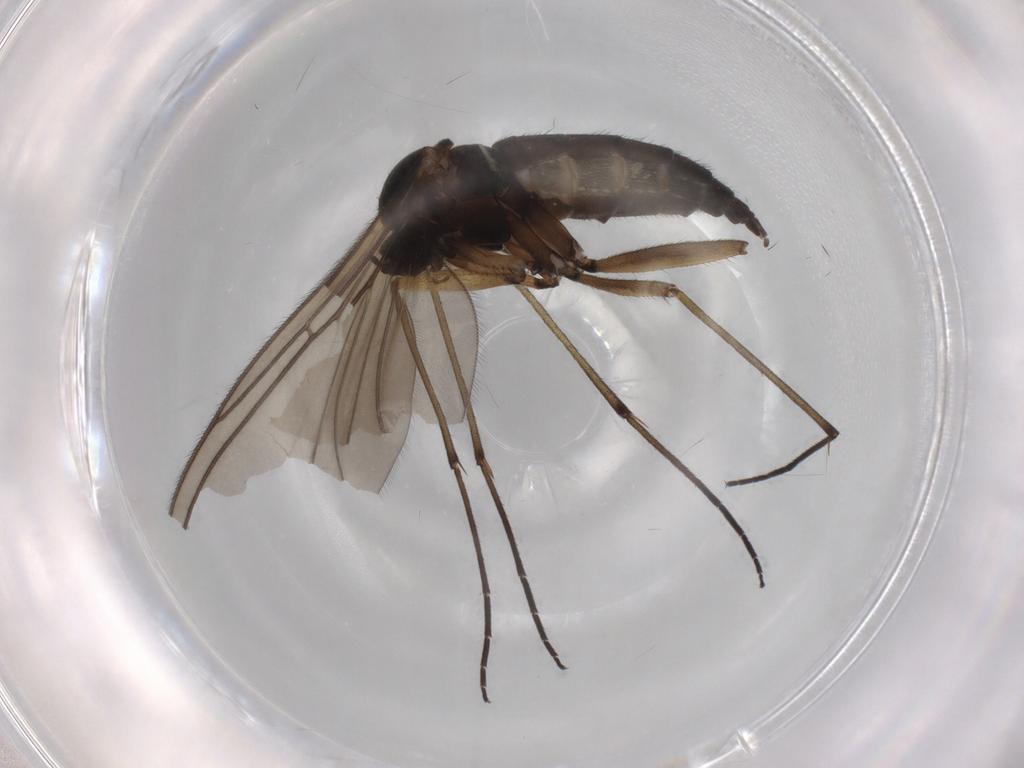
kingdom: Animalia
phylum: Arthropoda
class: Insecta
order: Diptera
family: Sciaridae
